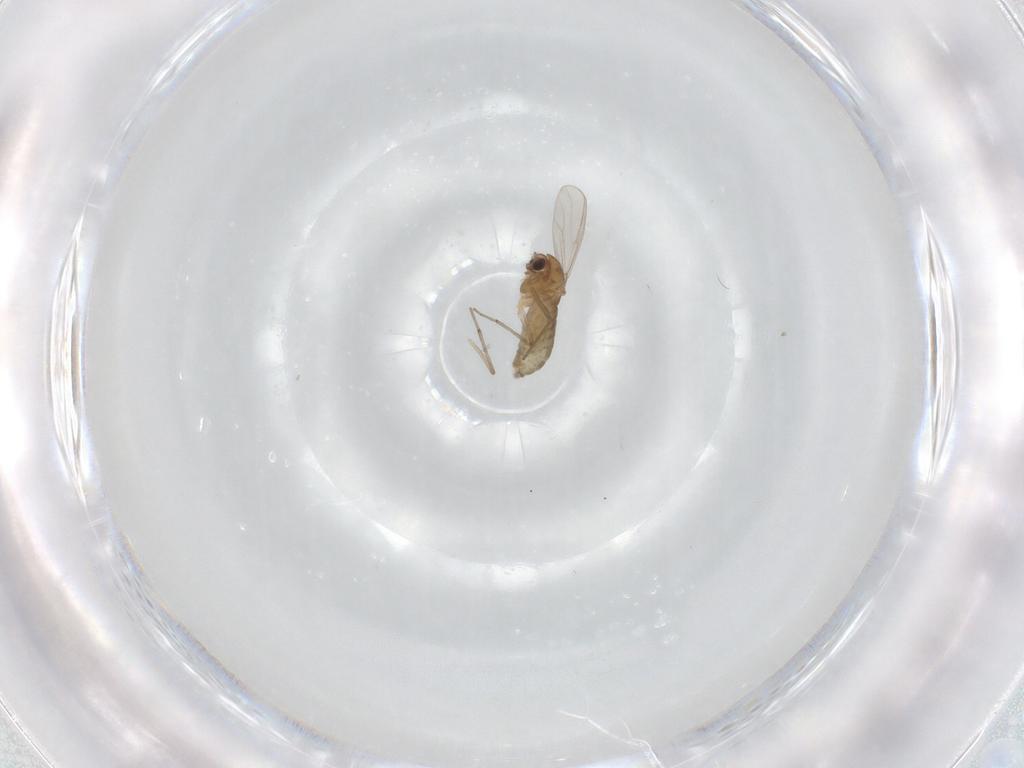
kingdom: Animalia
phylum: Arthropoda
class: Insecta
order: Diptera
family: Chironomidae
